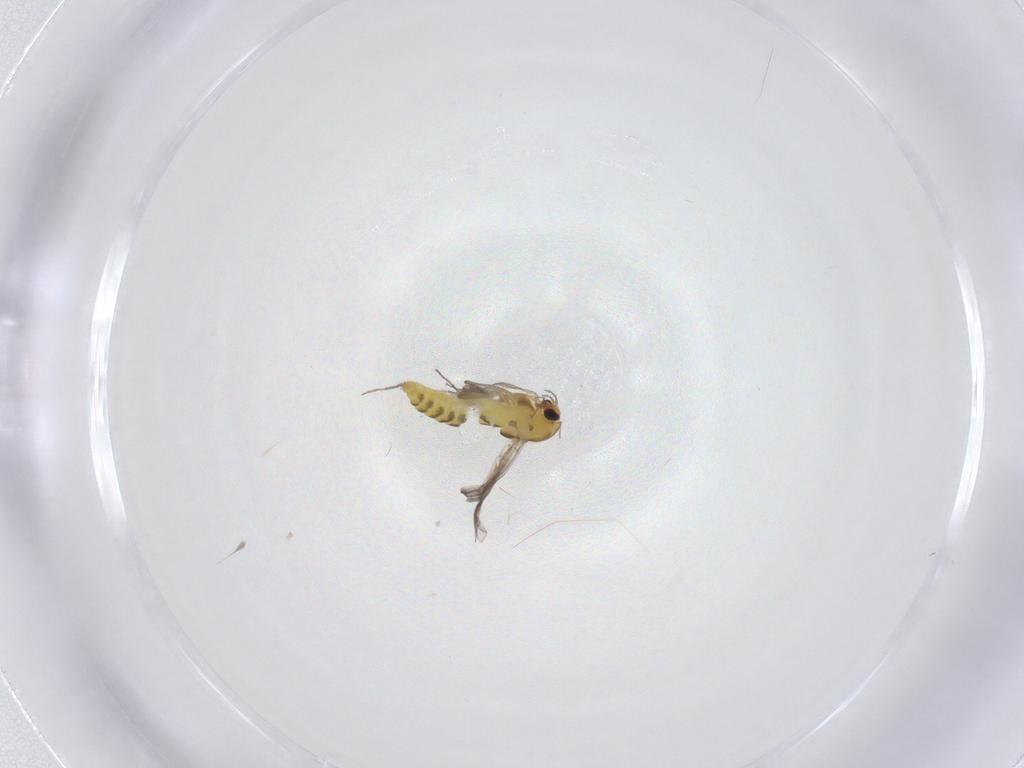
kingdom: Animalia
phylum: Arthropoda
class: Insecta
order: Diptera
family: Chironomidae
